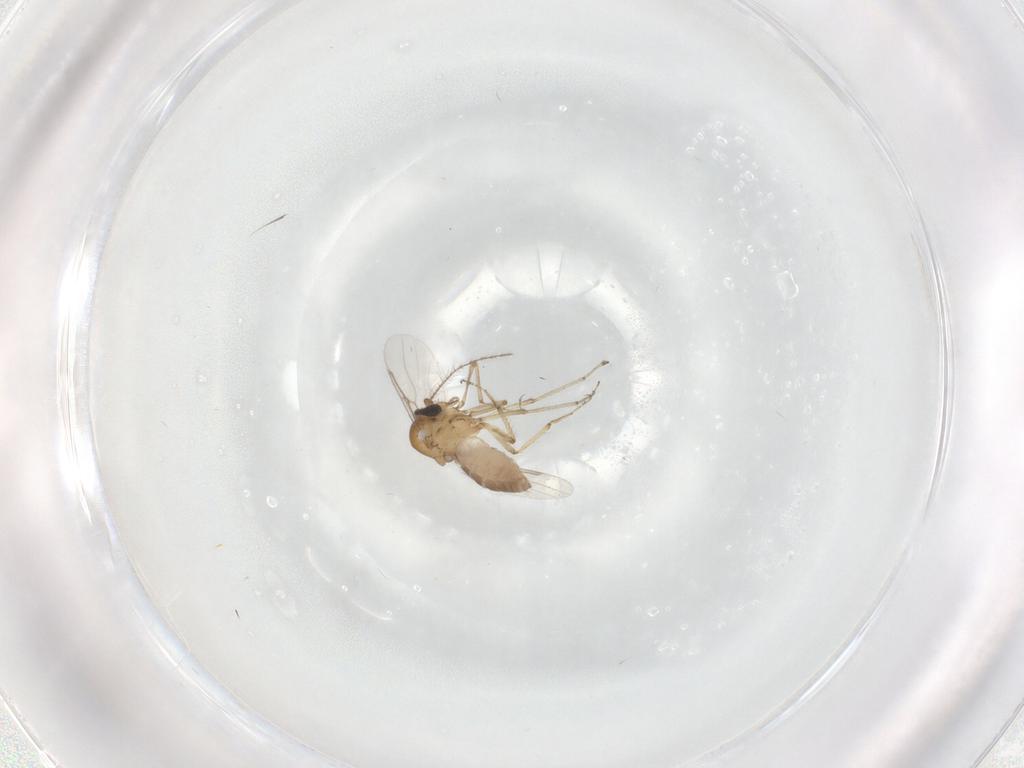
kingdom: Animalia
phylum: Arthropoda
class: Insecta
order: Diptera
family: Ceratopogonidae
